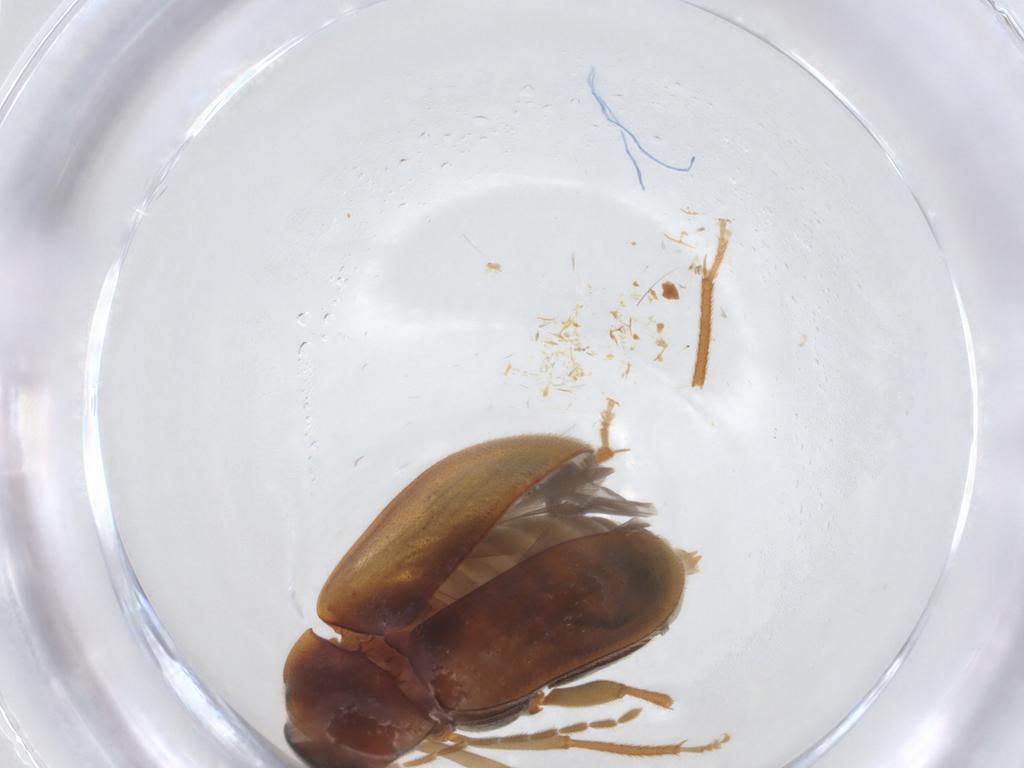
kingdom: Animalia
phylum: Arthropoda
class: Insecta
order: Coleoptera
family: Ptilodactylidae
